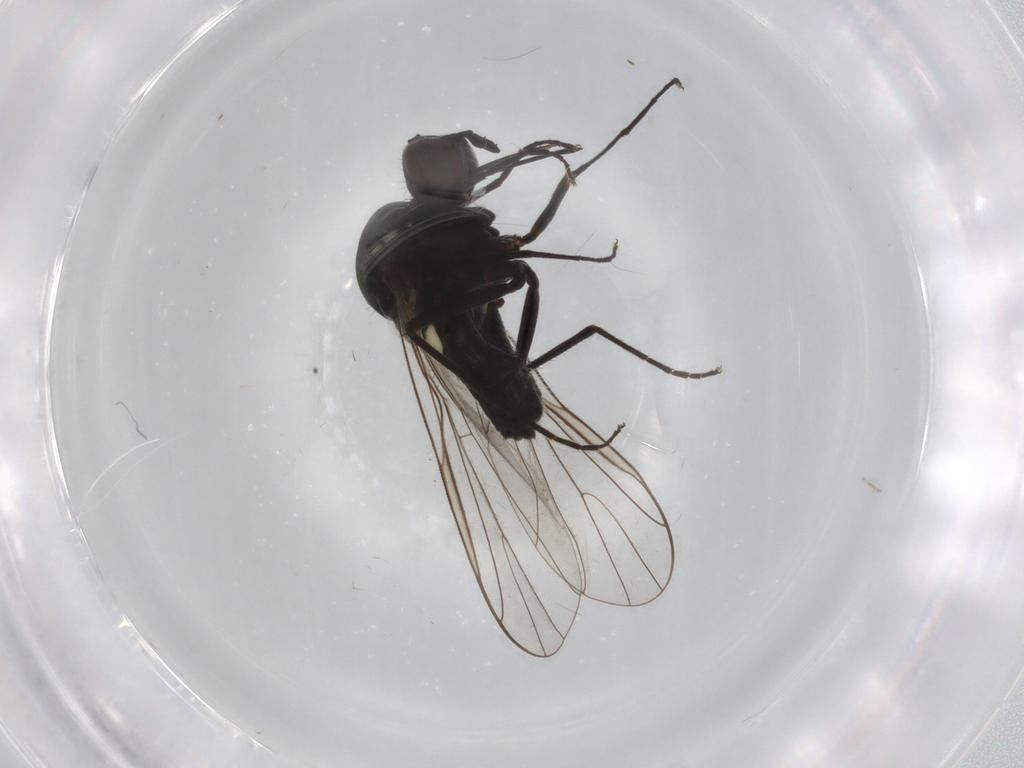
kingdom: Animalia
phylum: Arthropoda
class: Insecta
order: Diptera
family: Bombyliidae
